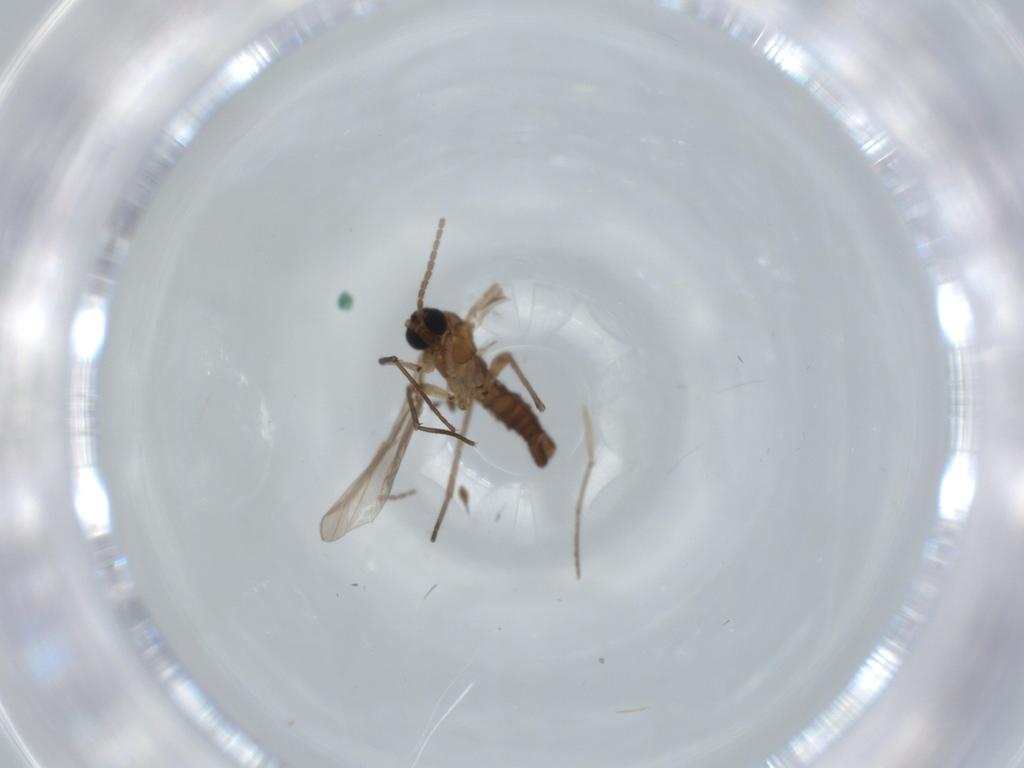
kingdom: Animalia
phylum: Arthropoda
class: Insecta
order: Diptera
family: Sciaridae
